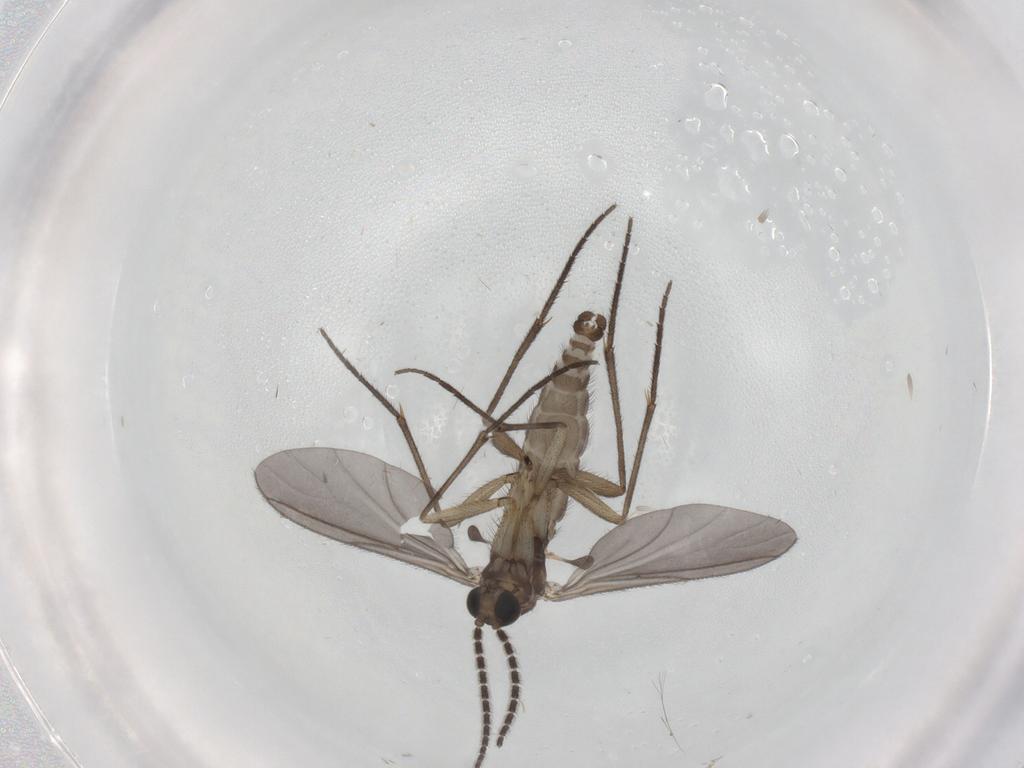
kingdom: Animalia
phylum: Arthropoda
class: Insecta
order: Diptera
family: Sciaridae
